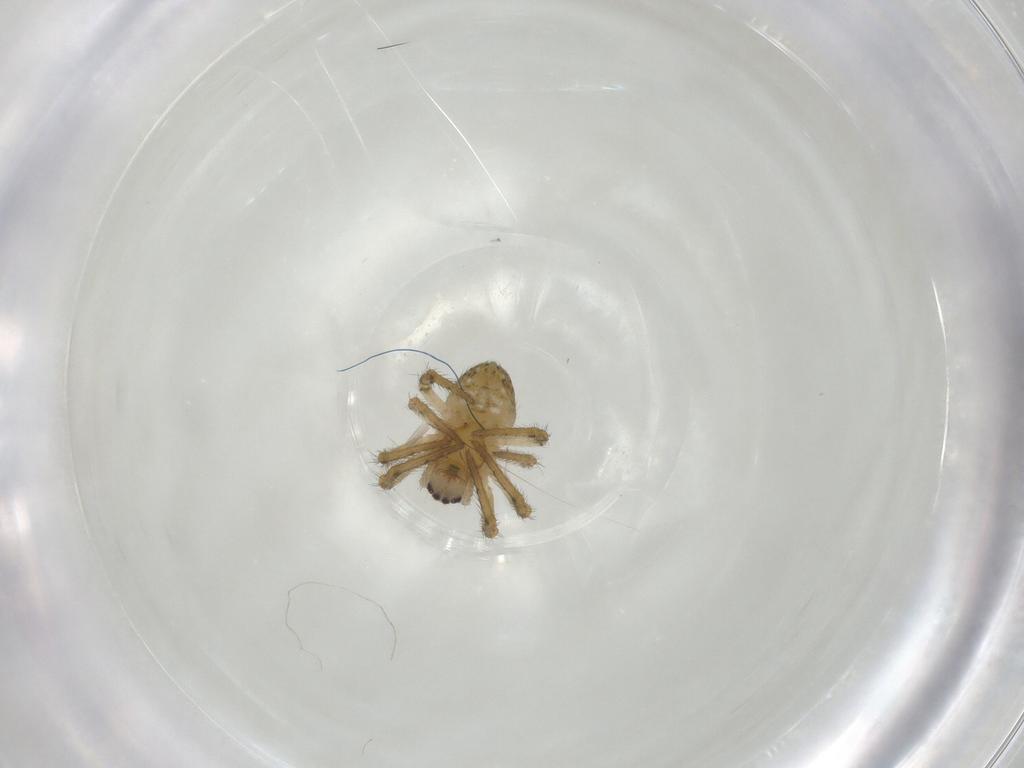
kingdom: Animalia
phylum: Arthropoda
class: Arachnida
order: Araneae
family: Araneidae
